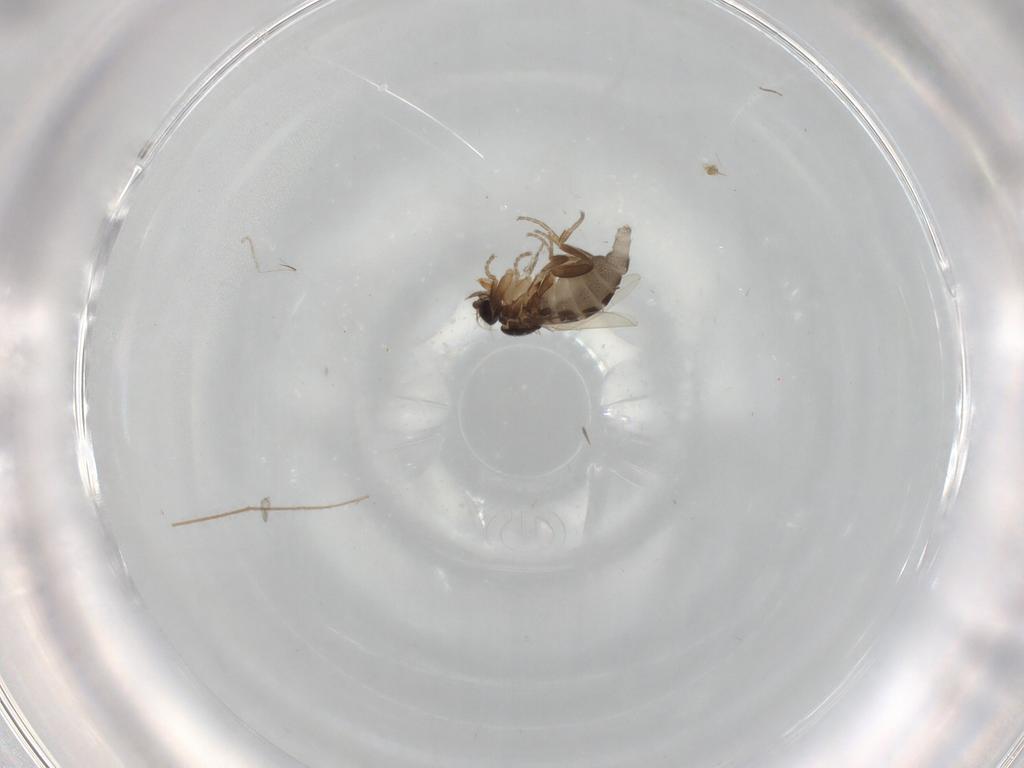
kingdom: Animalia
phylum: Arthropoda
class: Insecta
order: Diptera
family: Phoridae
